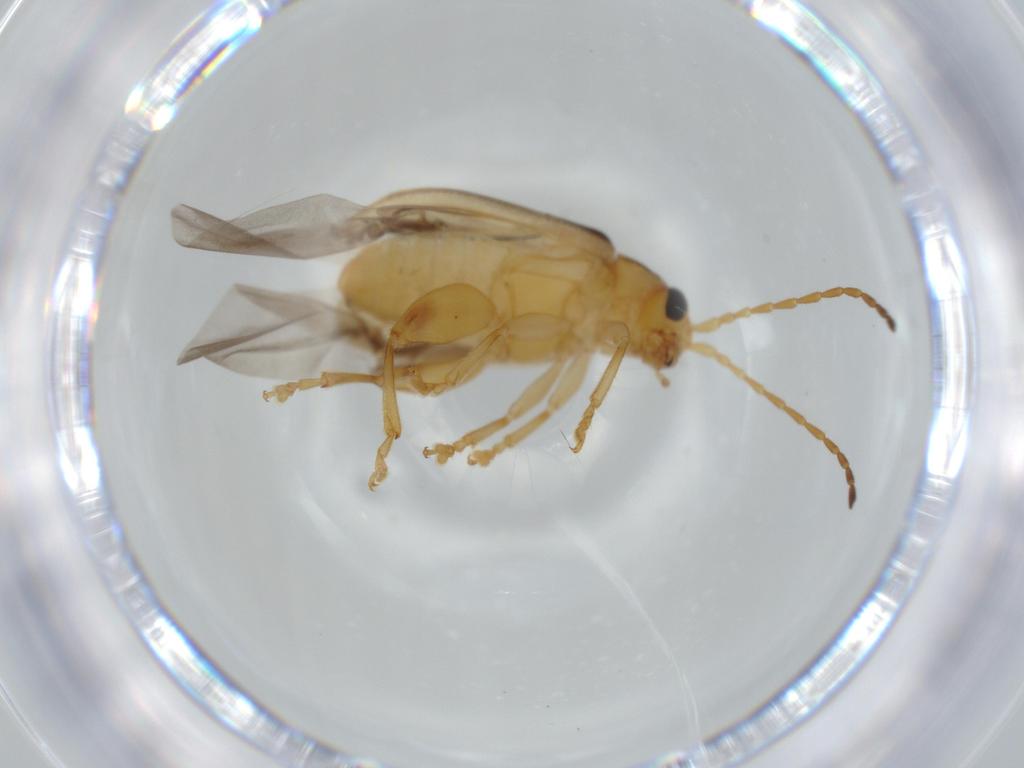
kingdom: Animalia
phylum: Arthropoda
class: Insecta
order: Coleoptera
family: Chrysomelidae
